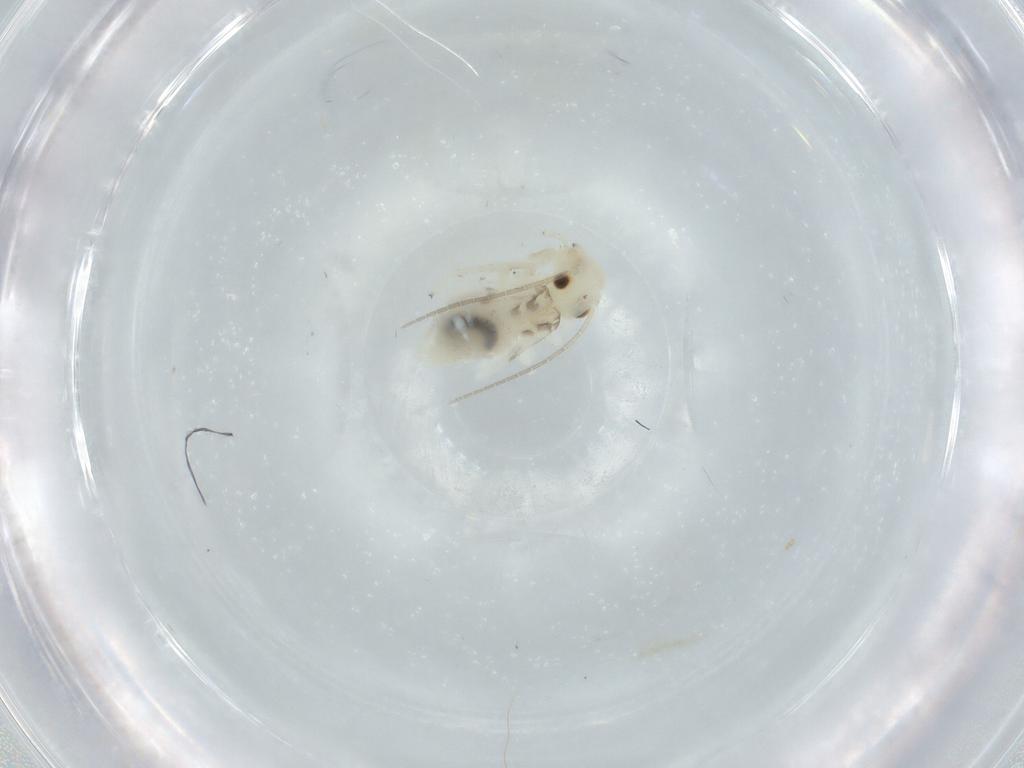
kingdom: Animalia
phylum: Arthropoda
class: Insecta
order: Psocodea
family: Caeciliusidae
